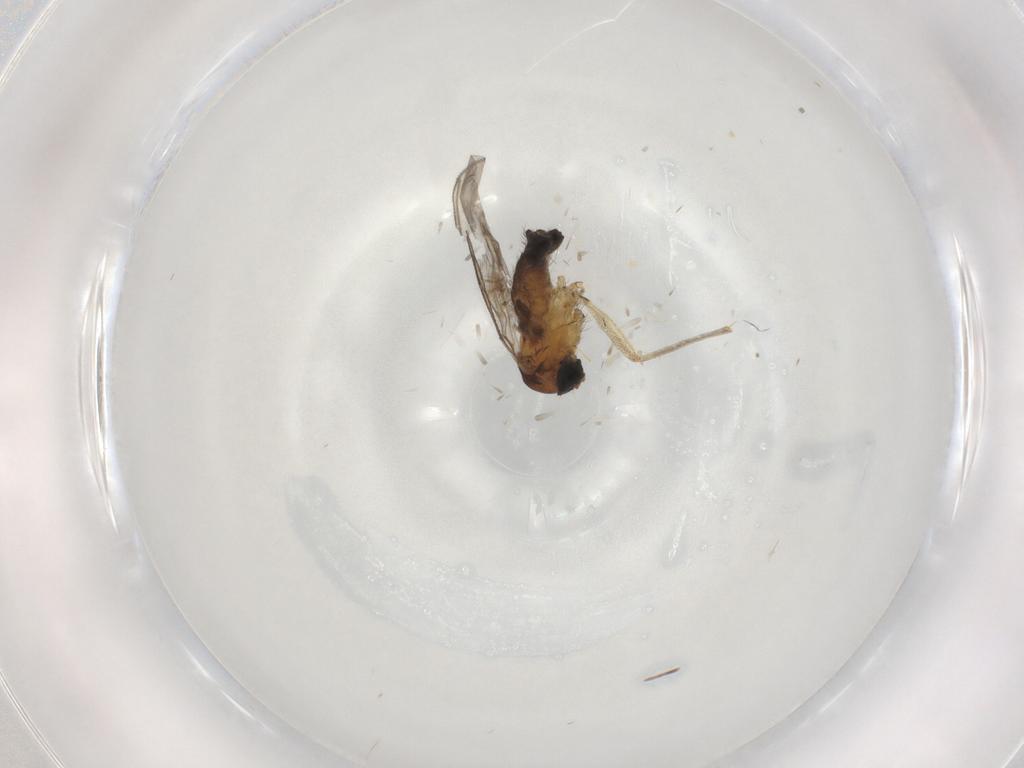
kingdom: Animalia
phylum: Arthropoda
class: Insecta
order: Diptera
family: Sciaridae
